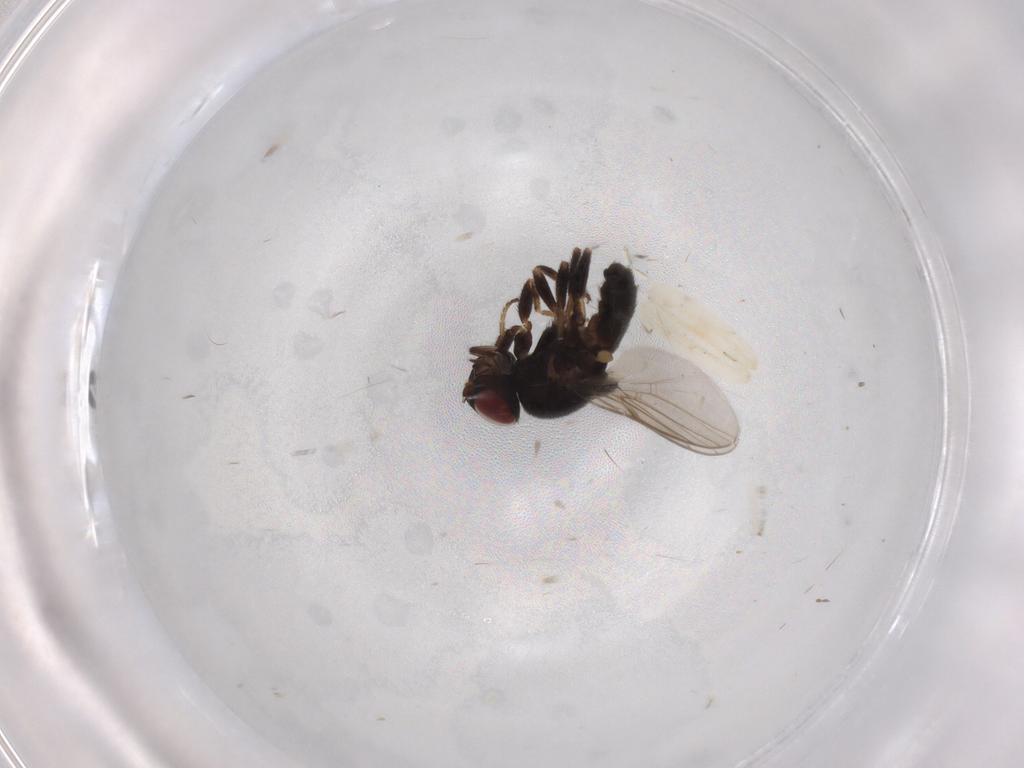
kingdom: Animalia
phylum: Arthropoda
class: Insecta
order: Diptera
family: Chloropidae
